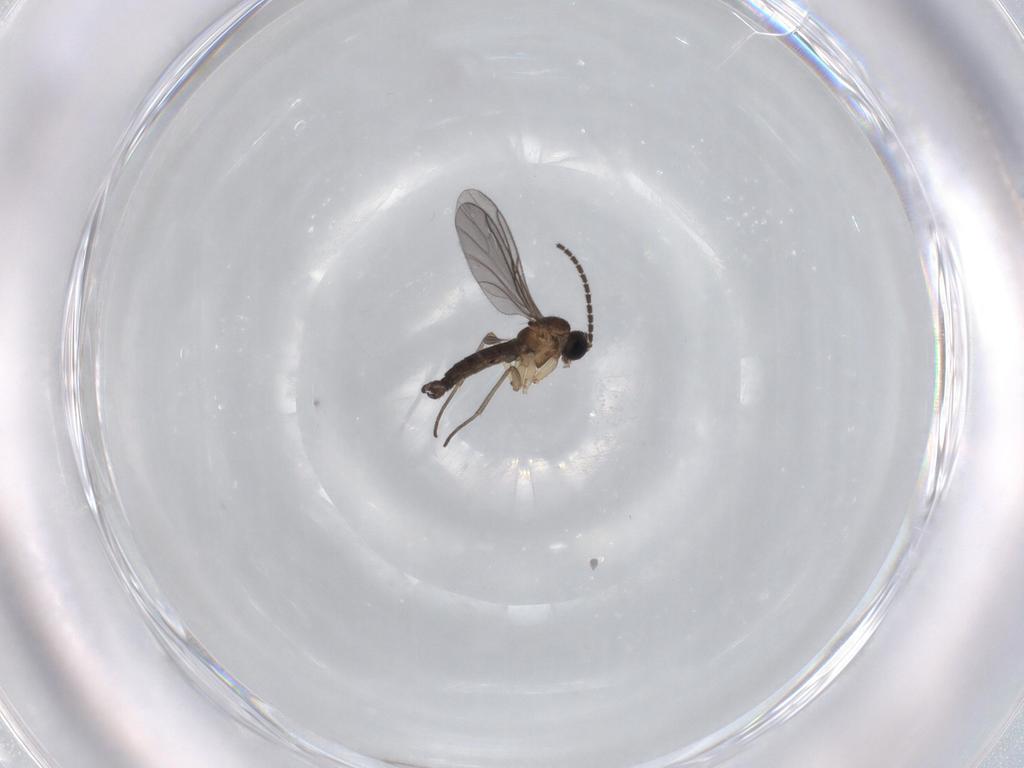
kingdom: Animalia
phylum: Arthropoda
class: Insecta
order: Diptera
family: Sciaridae
